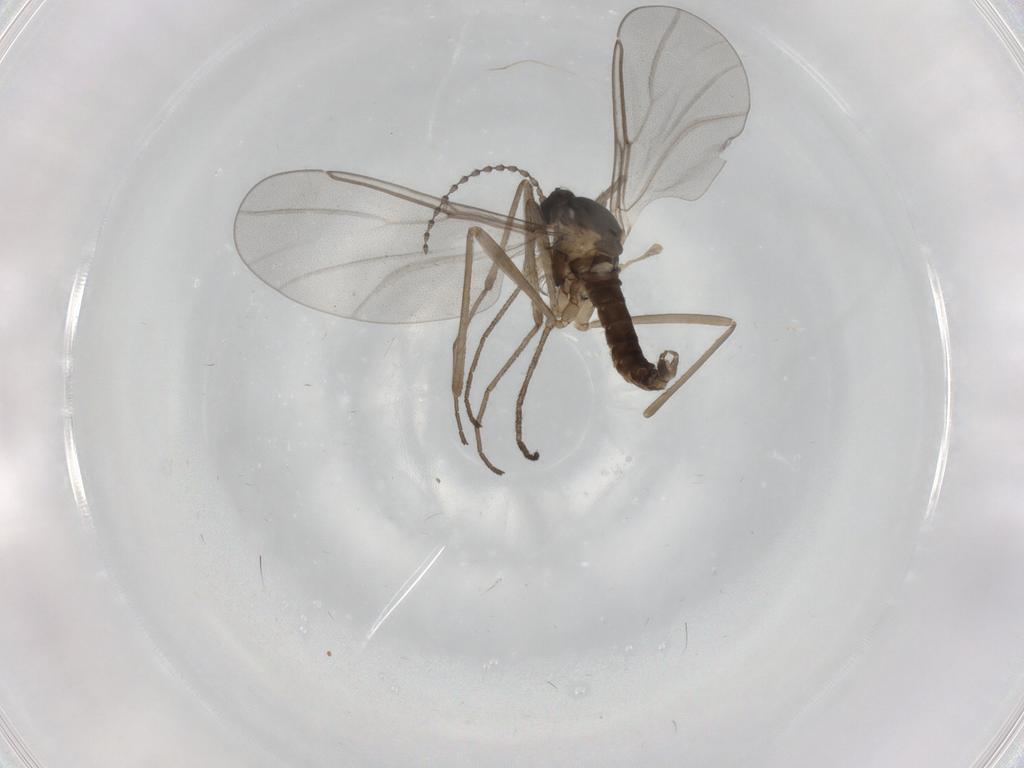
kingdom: Animalia
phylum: Arthropoda
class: Insecta
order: Diptera
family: Cecidomyiidae
